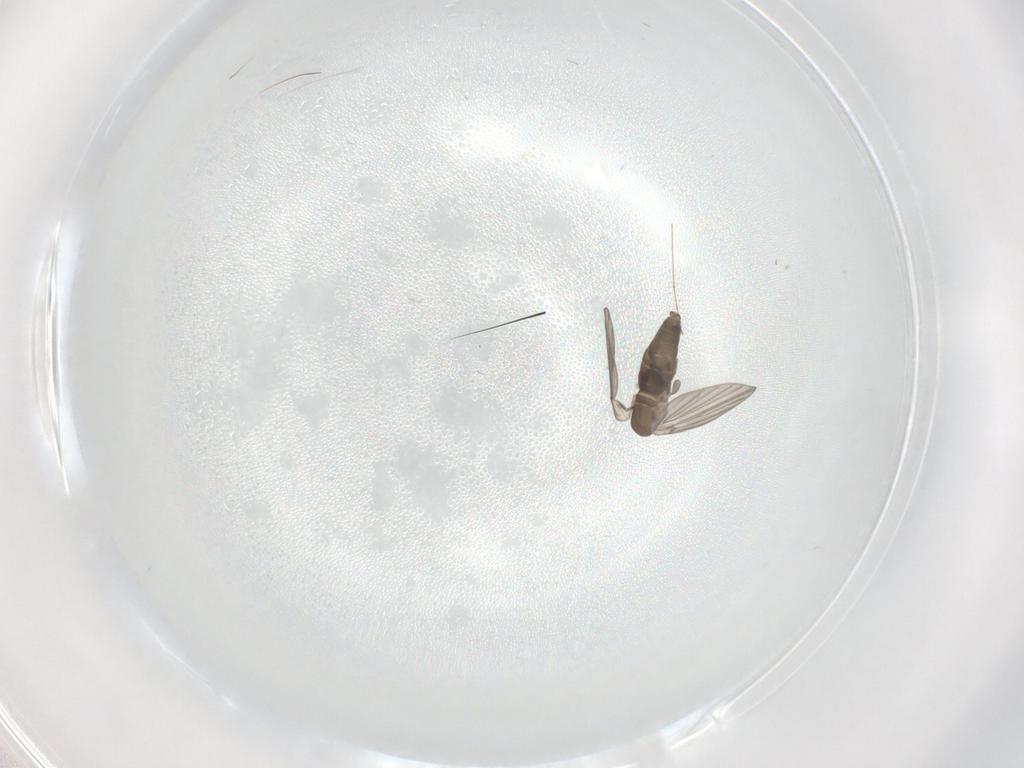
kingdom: Animalia
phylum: Arthropoda
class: Insecta
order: Diptera
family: Cecidomyiidae
